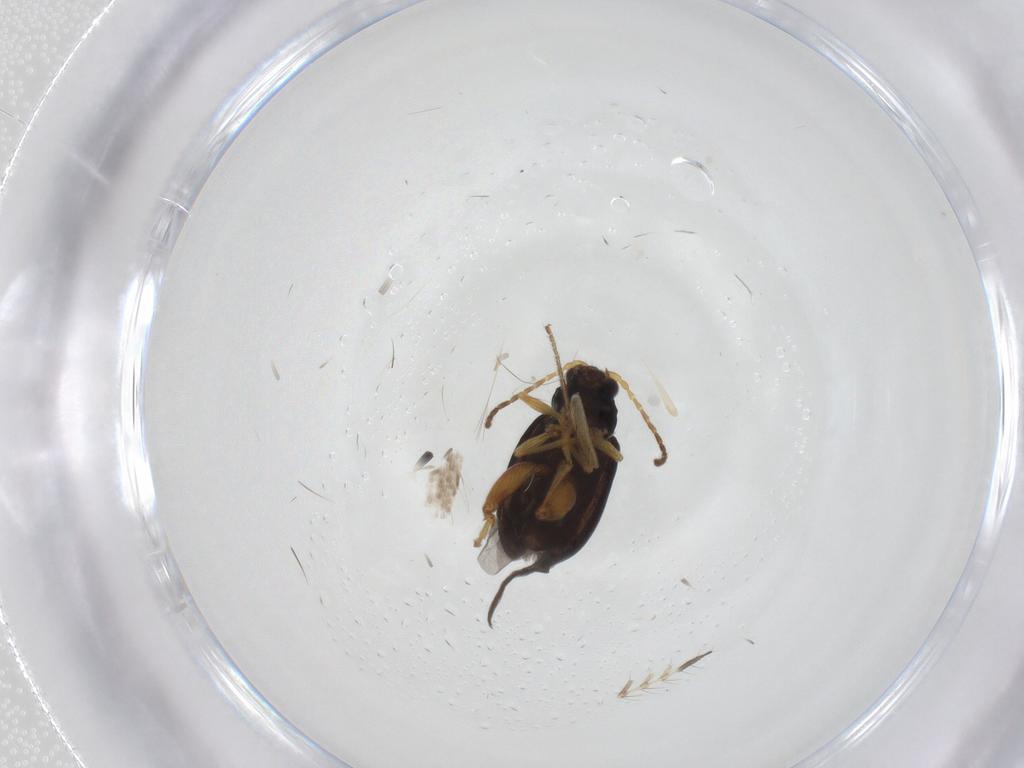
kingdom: Animalia
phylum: Arthropoda
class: Insecta
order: Coleoptera
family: Chrysomelidae
